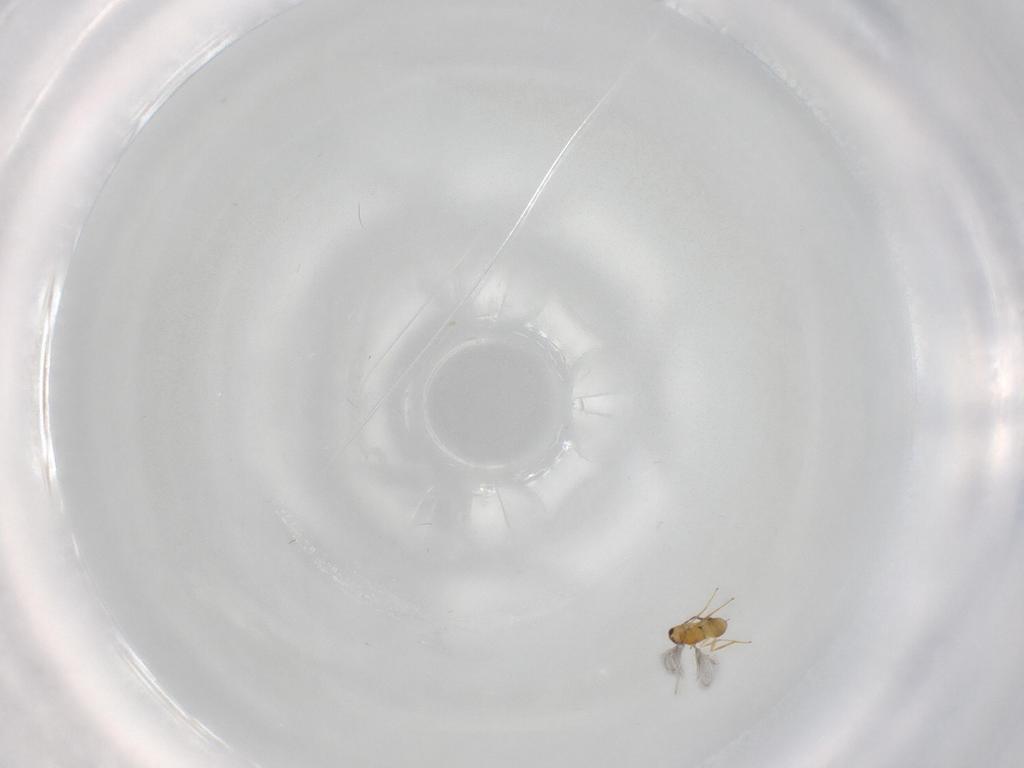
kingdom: Animalia
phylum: Arthropoda
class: Insecta
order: Hymenoptera
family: Mymaridae
